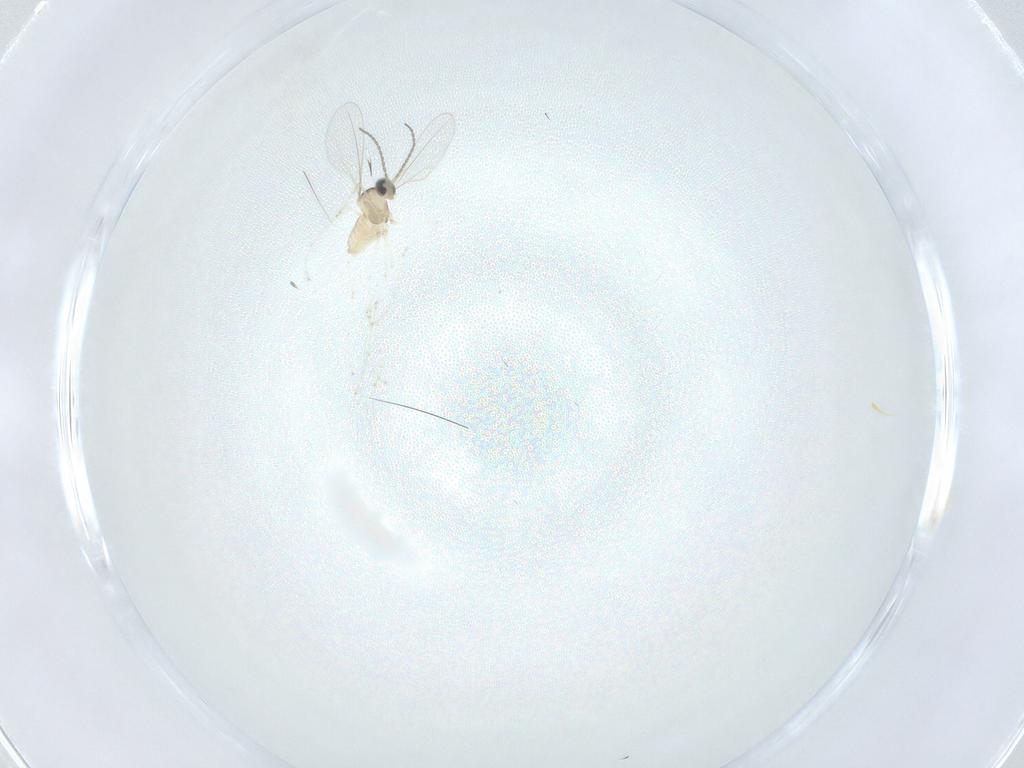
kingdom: Animalia
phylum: Arthropoda
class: Insecta
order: Diptera
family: Cecidomyiidae
